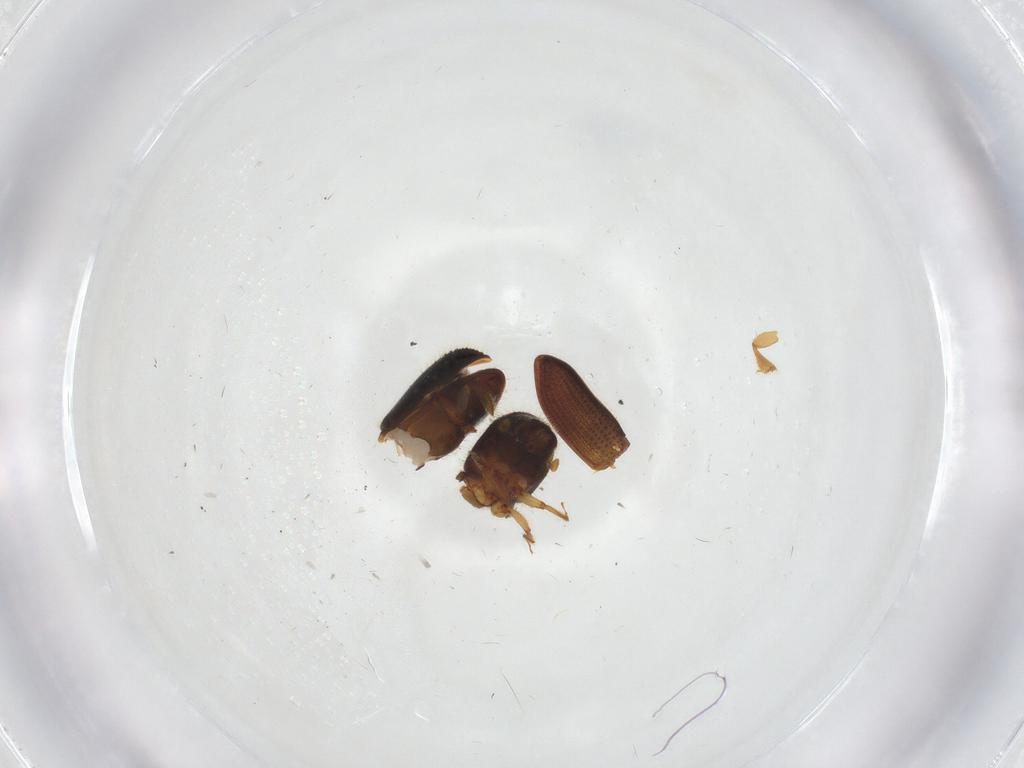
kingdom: Animalia
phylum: Arthropoda
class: Insecta
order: Coleoptera
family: Curculionidae
